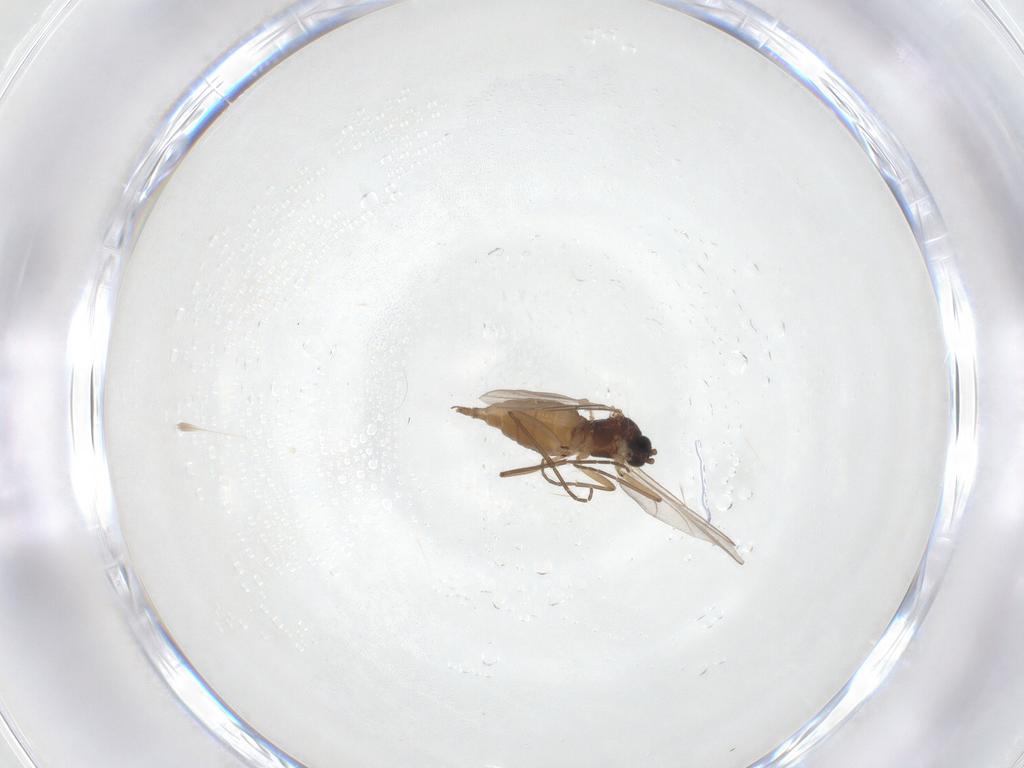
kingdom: Animalia
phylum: Arthropoda
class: Insecta
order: Diptera
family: Sciaridae
